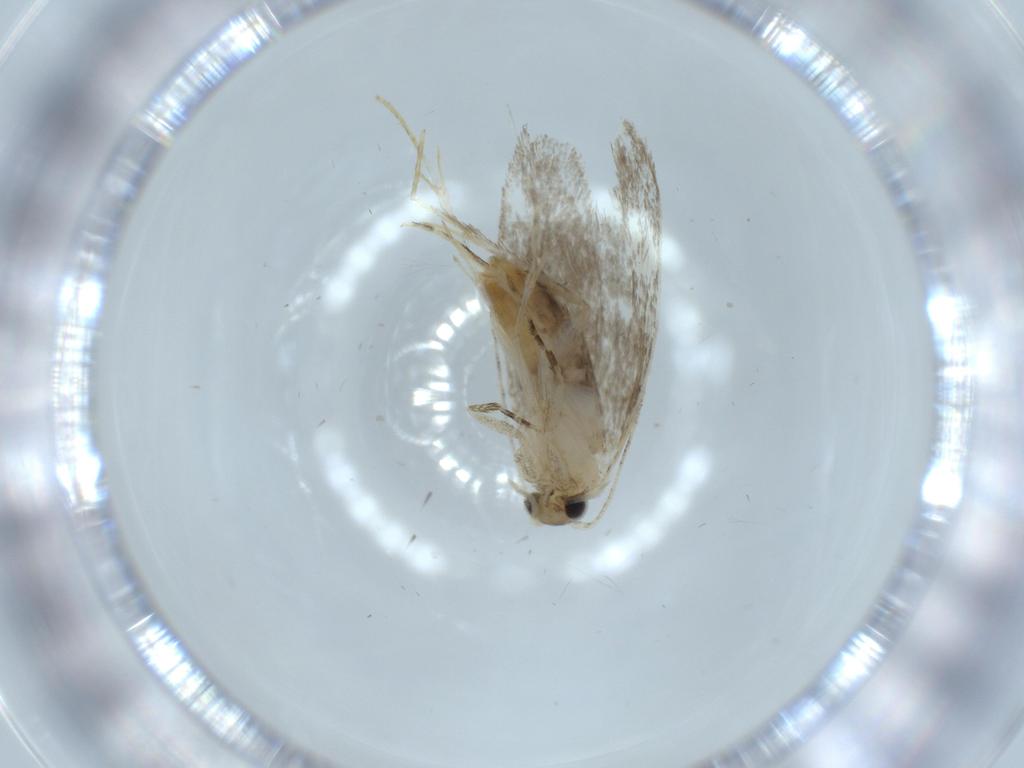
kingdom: Animalia
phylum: Arthropoda
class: Insecta
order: Lepidoptera
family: Tineidae
